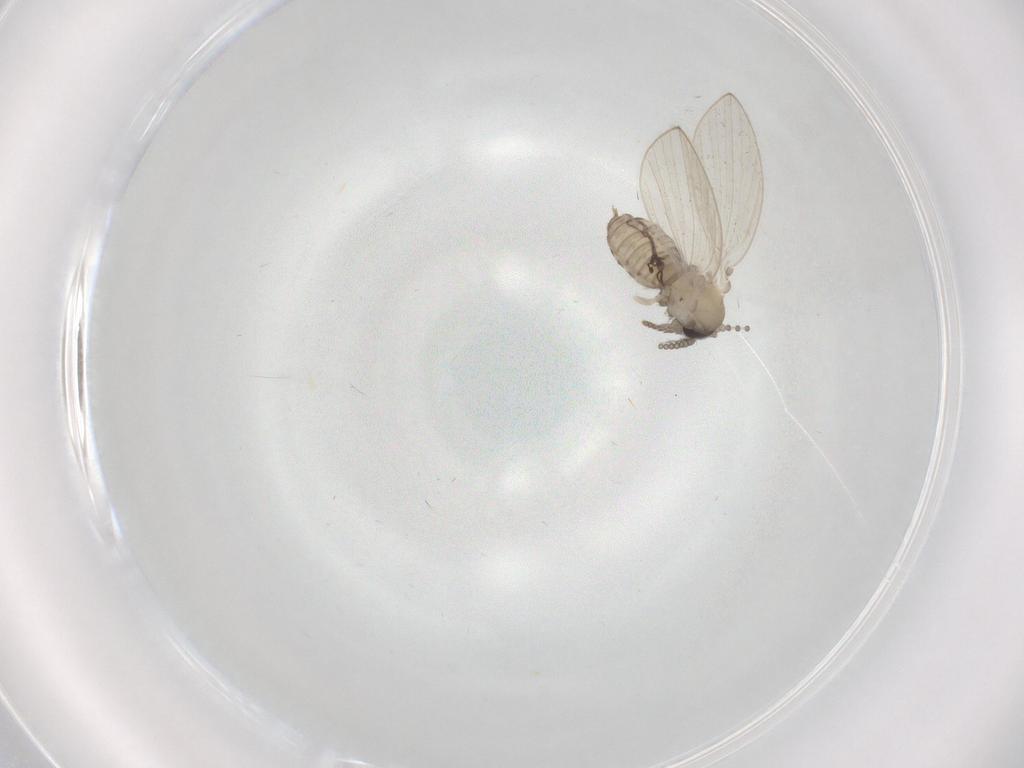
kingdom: Animalia
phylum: Arthropoda
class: Insecta
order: Diptera
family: Psychodidae
